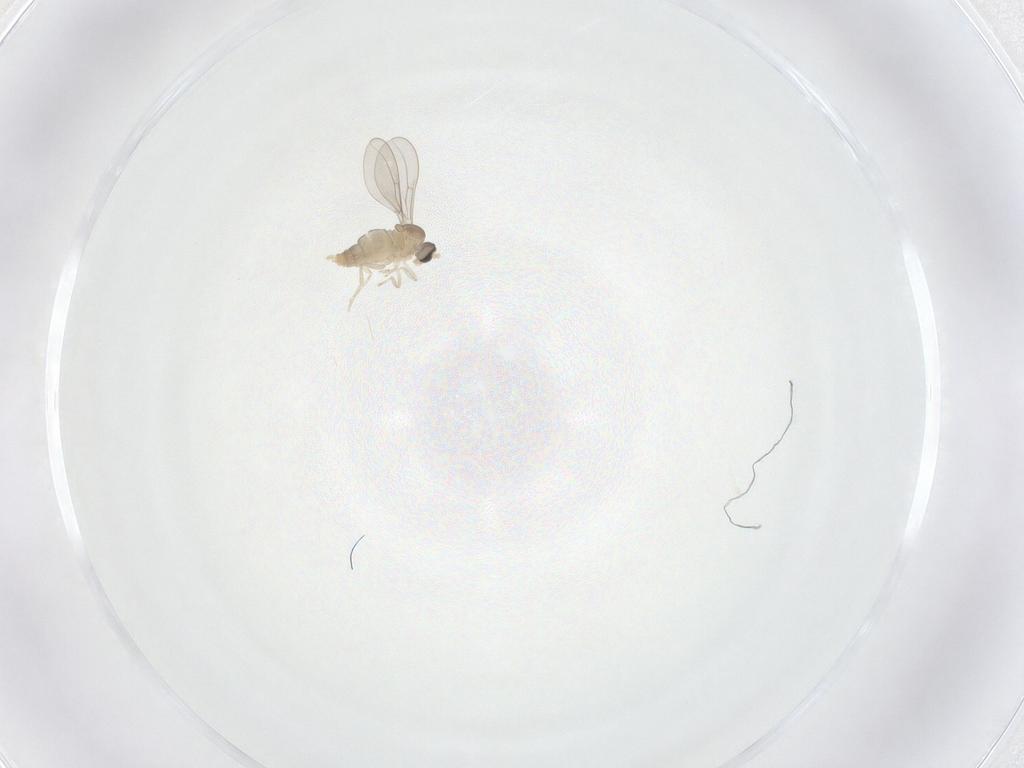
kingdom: Animalia
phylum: Arthropoda
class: Insecta
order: Diptera
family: Cecidomyiidae
